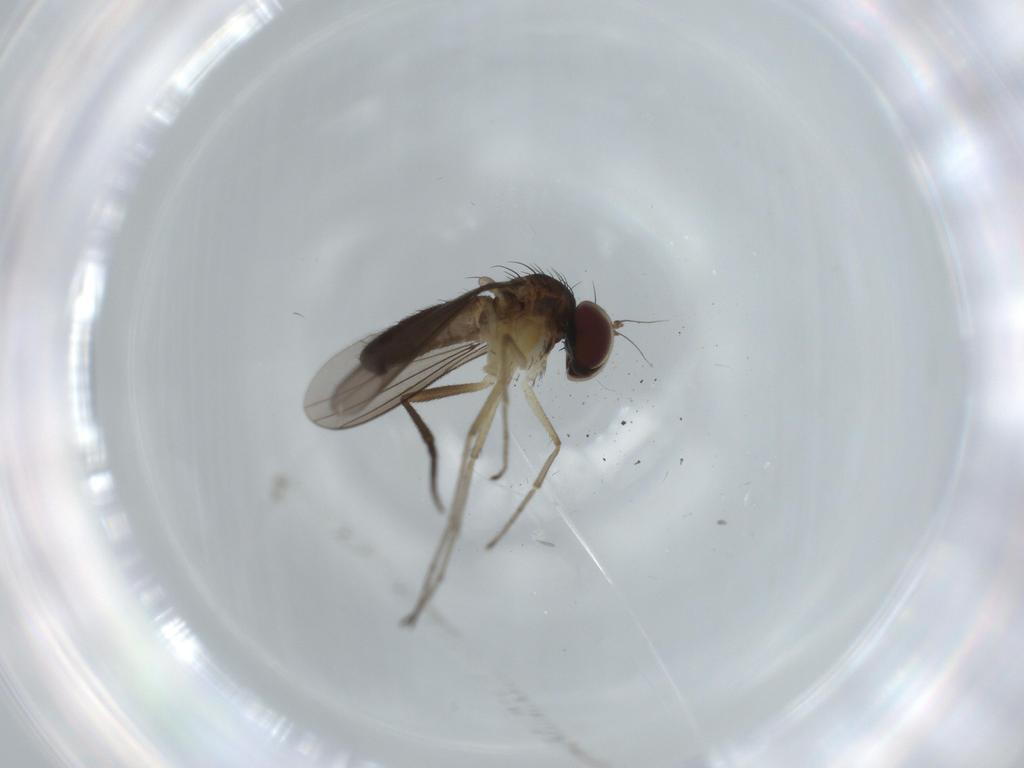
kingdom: Animalia
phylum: Arthropoda
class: Insecta
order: Diptera
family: Sciaridae
